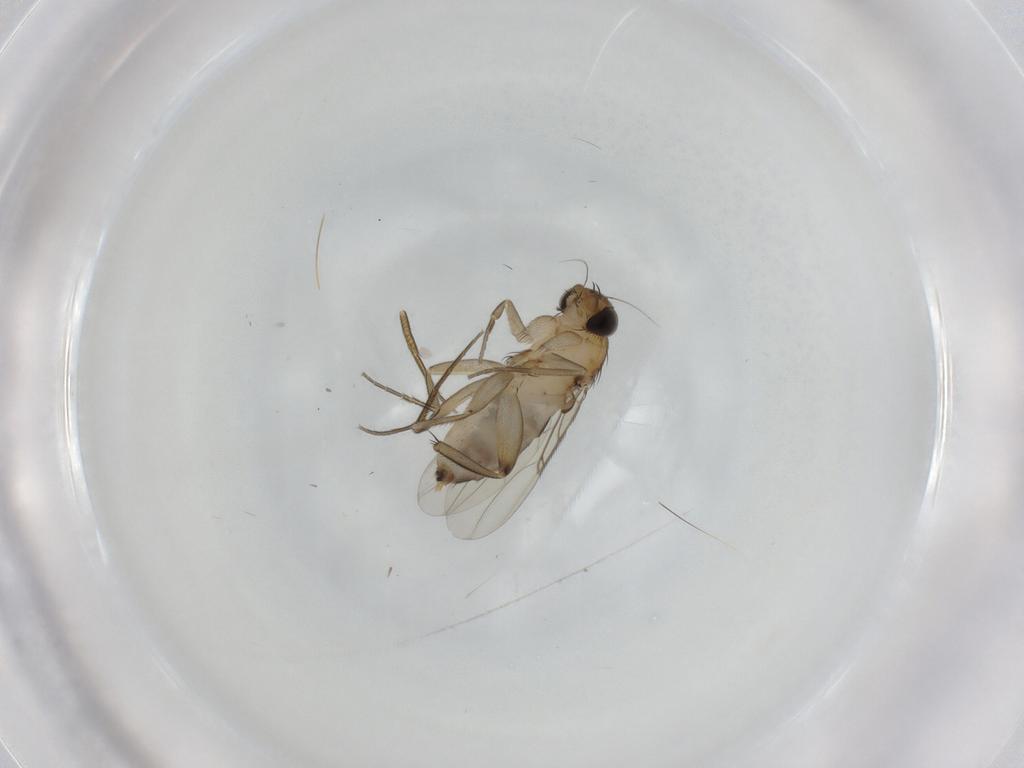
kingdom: Animalia
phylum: Arthropoda
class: Insecta
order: Diptera
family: Phoridae
